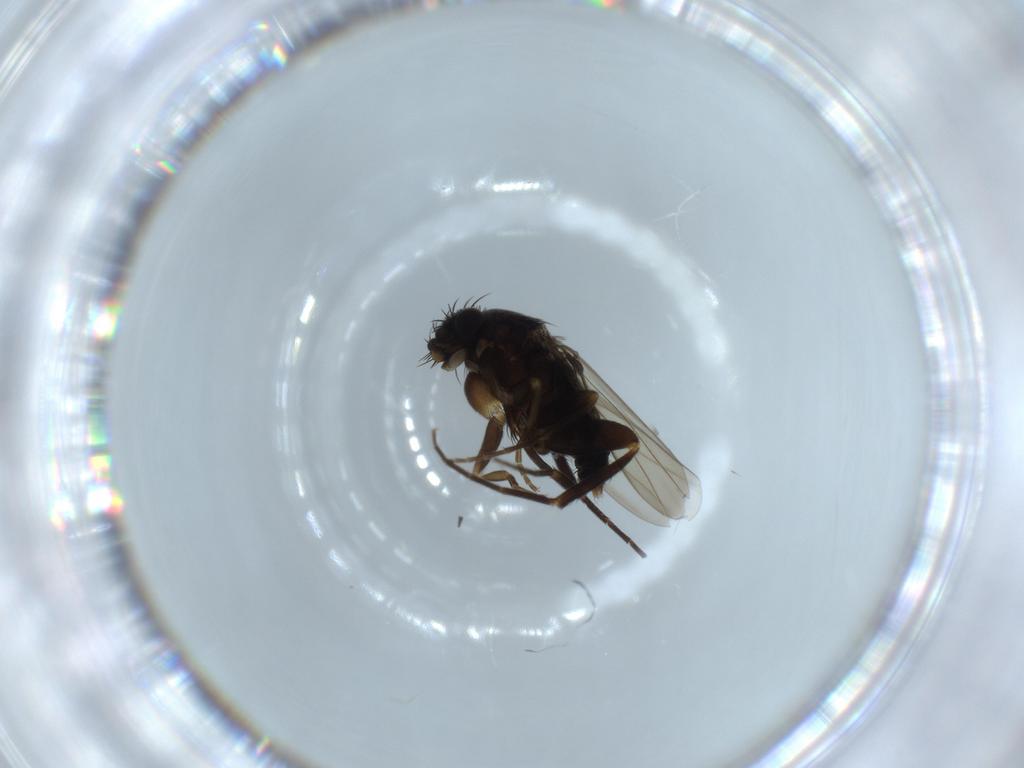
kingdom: Animalia
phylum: Arthropoda
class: Insecta
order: Diptera
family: Phoridae
